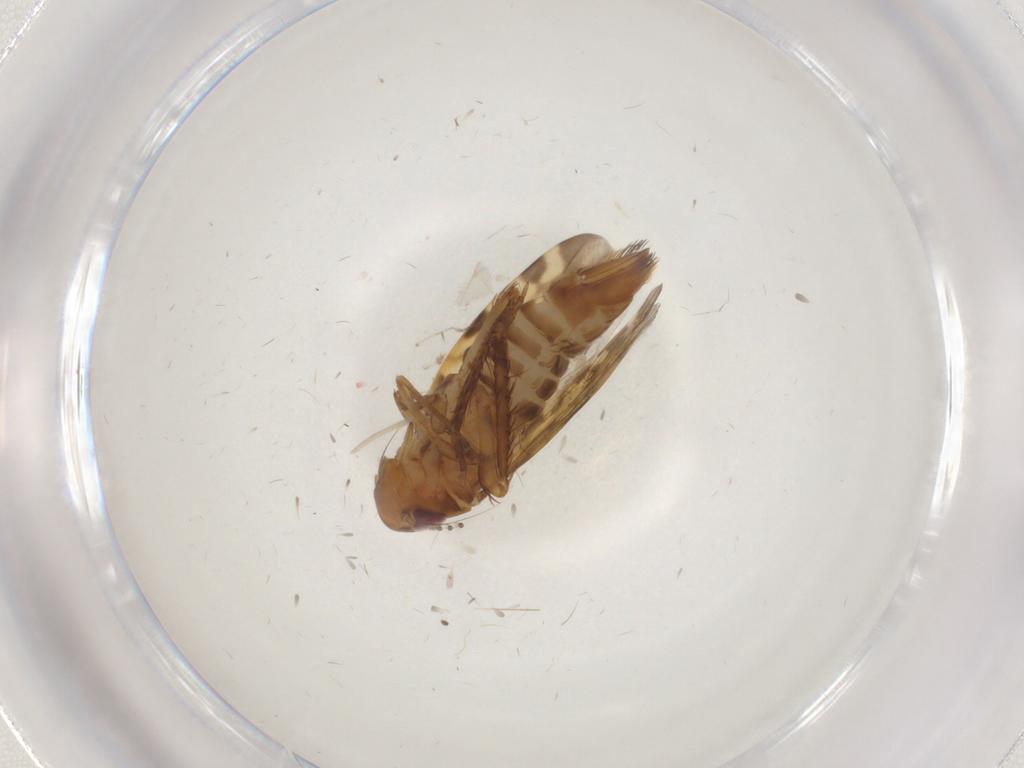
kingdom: Animalia
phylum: Arthropoda
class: Insecta
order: Hemiptera
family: Cicadellidae
